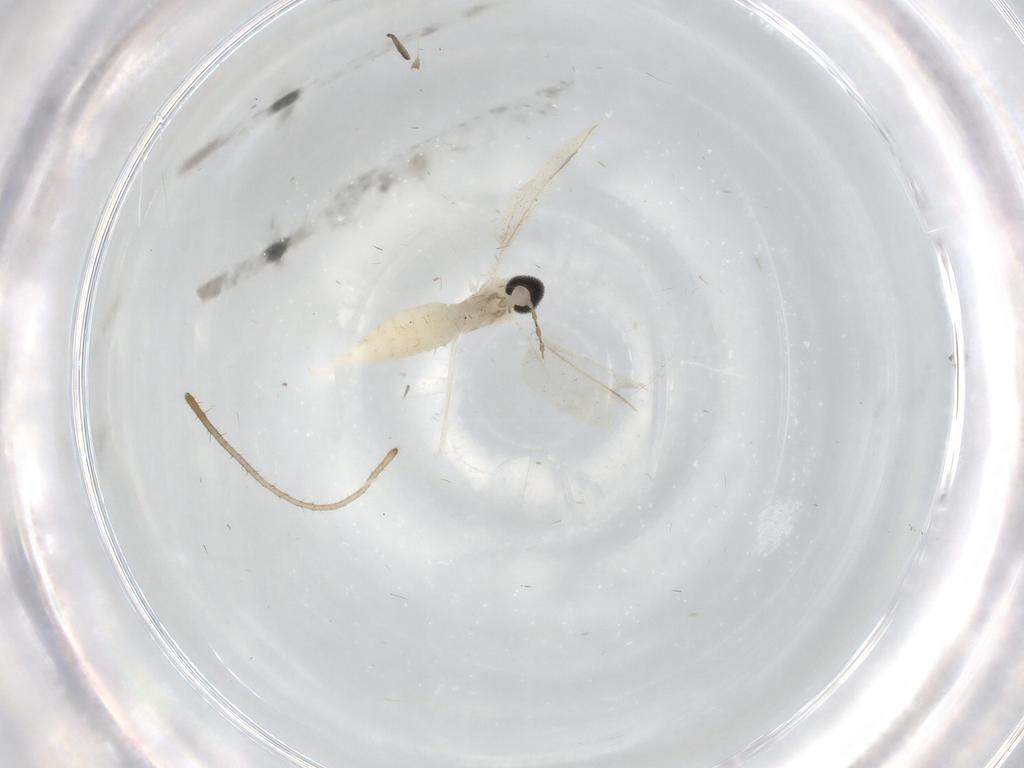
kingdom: Animalia
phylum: Arthropoda
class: Insecta
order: Diptera
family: Cecidomyiidae
